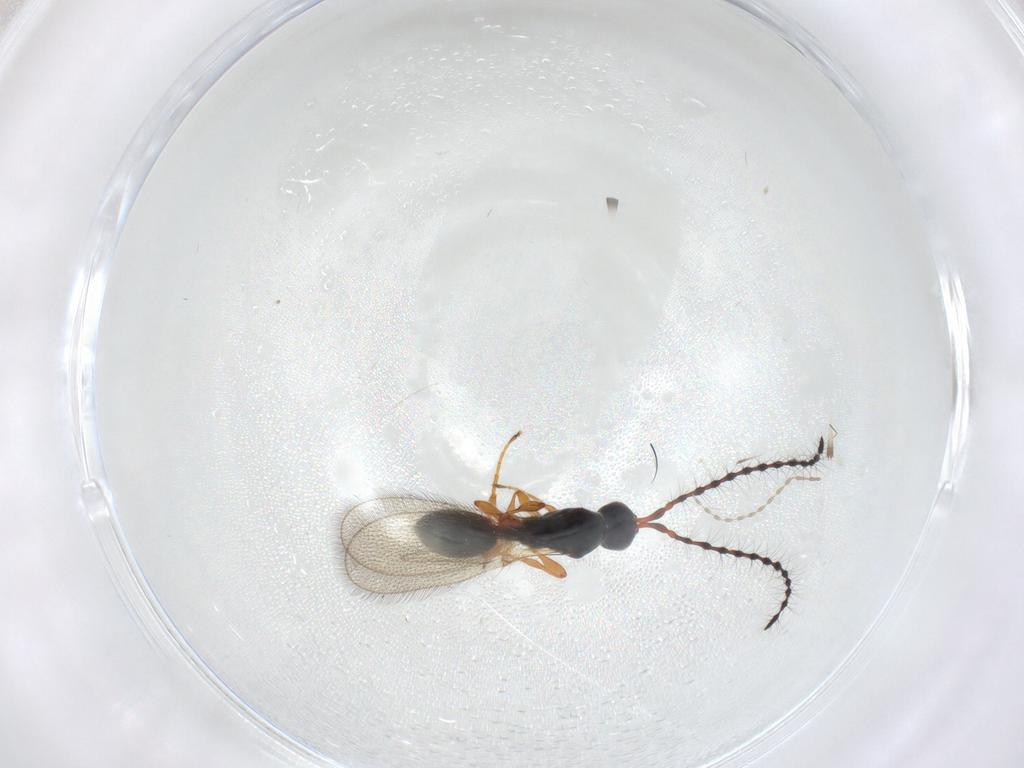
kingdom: Animalia
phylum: Arthropoda
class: Insecta
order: Hymenoptera
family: Diapriidae
